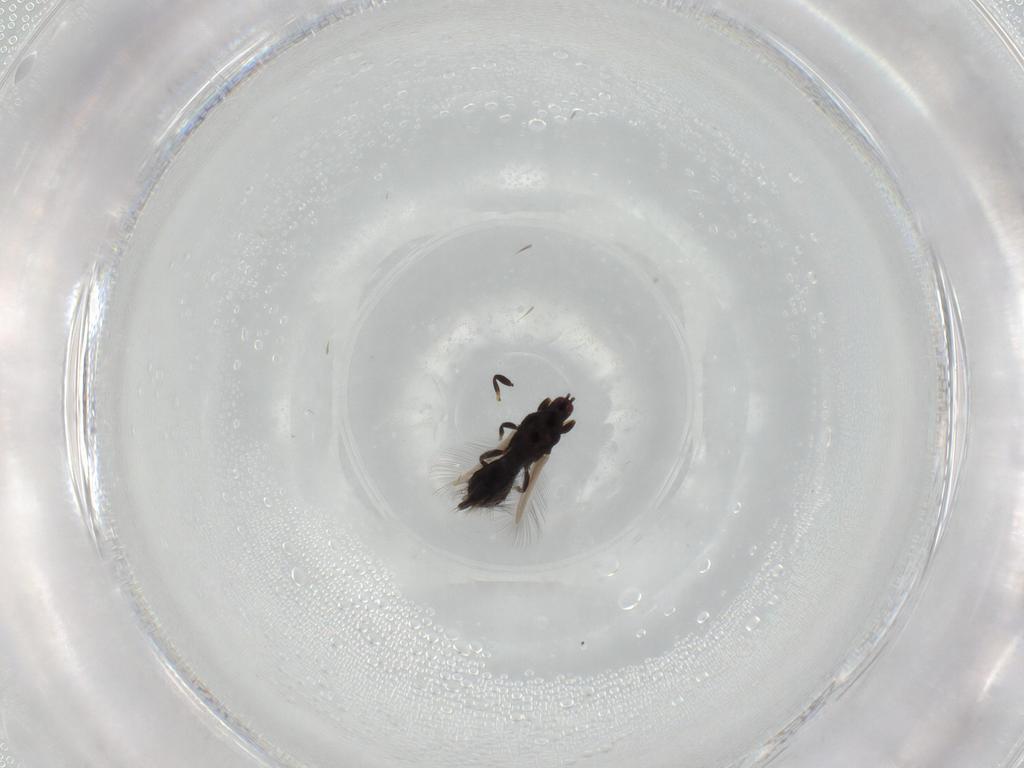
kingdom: Animalia
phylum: Arthropoda
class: Insecta
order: Thysanoptera
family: Phlaeothripidae
